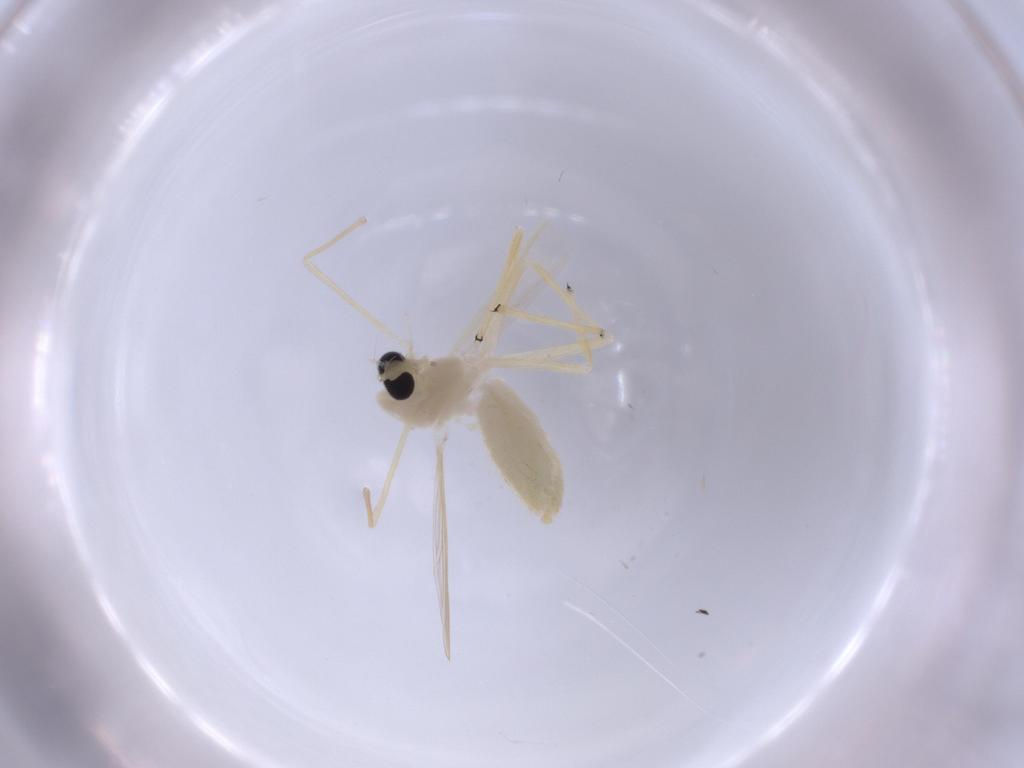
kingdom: Animalia
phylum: Arthropoda
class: Insecta
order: Diptera
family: Chironomidae
